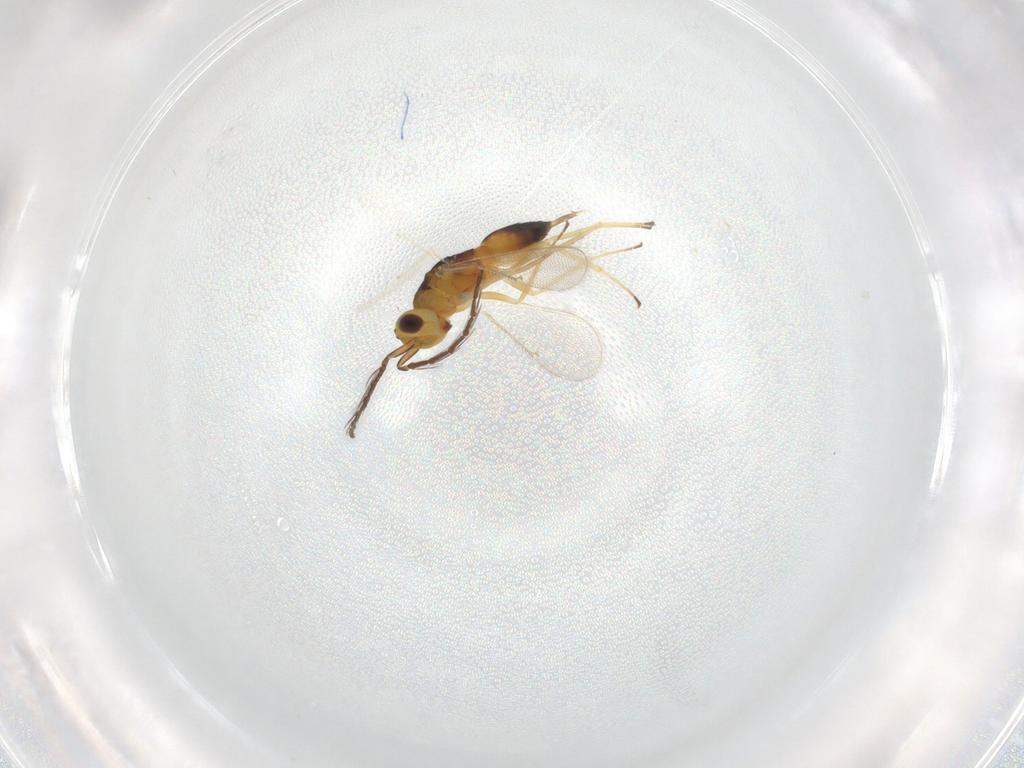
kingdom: Animalia
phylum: Arthropoda
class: Insecta
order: Hymenoptera
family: Eulophidae
